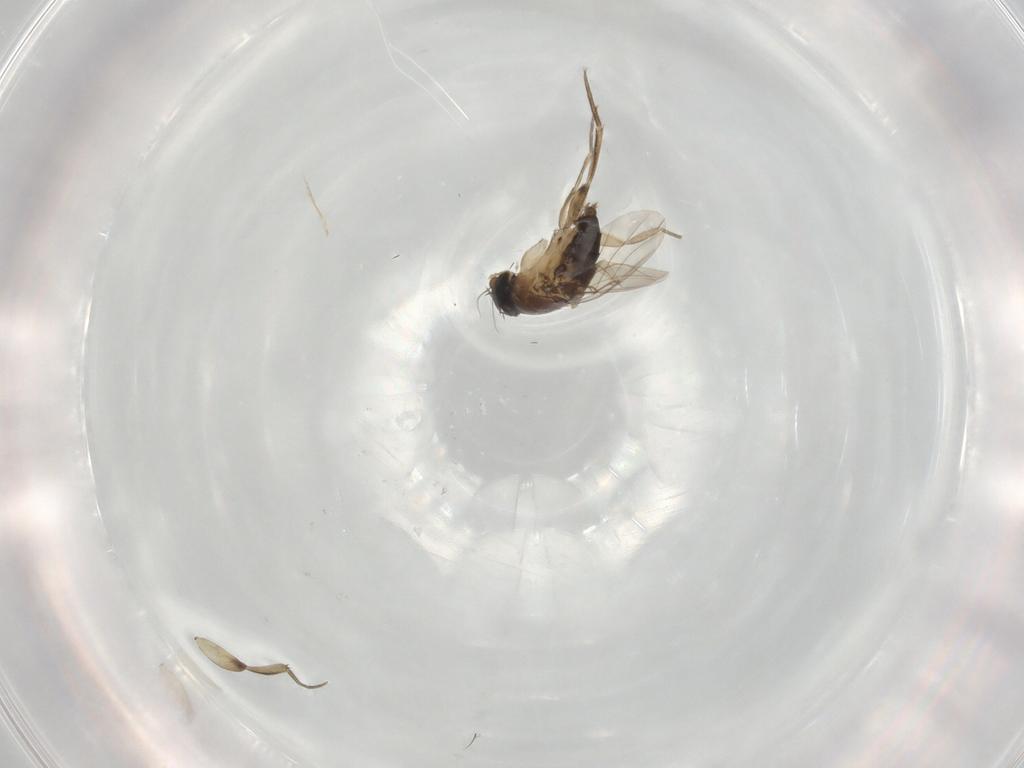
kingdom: Animalia
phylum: Arthropoda
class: Insecta
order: Diptera
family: Phoridae
